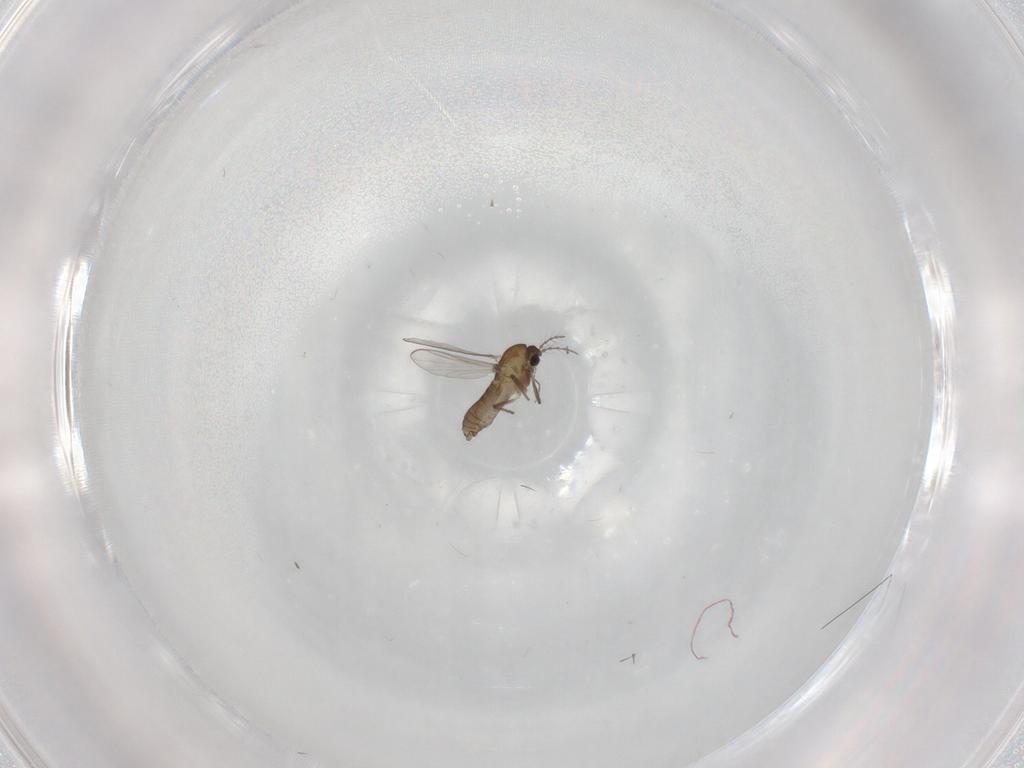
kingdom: Animalia
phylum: Arthropoda
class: Insecta
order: Diptera
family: Chironomidae
